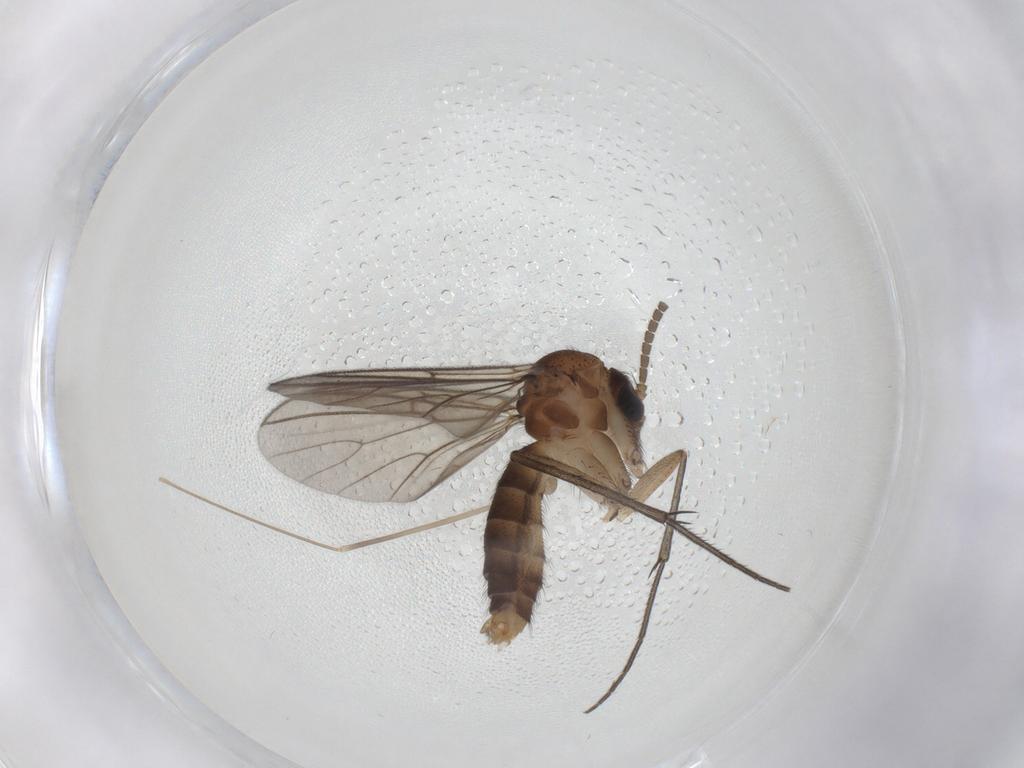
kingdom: Animalia
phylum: Arthropoda
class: Insecta
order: Diptera
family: Mycetophilidae
